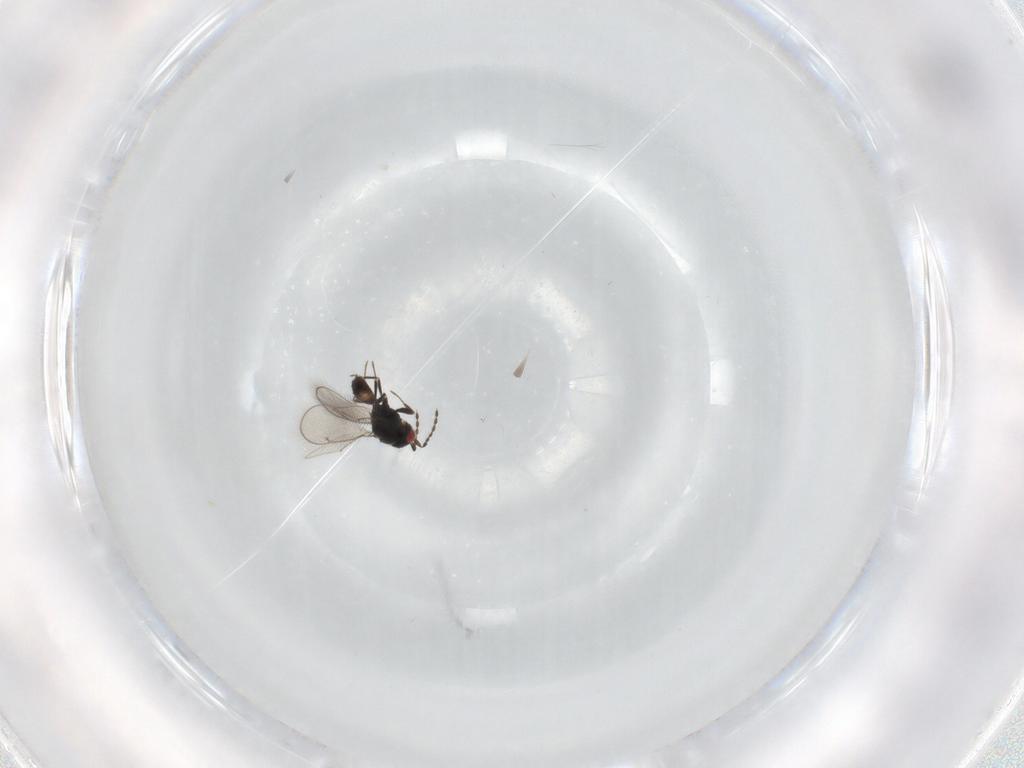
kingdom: Animalia
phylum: Arthropoda
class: Insecta
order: Hymenoptera
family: Eulophidae
